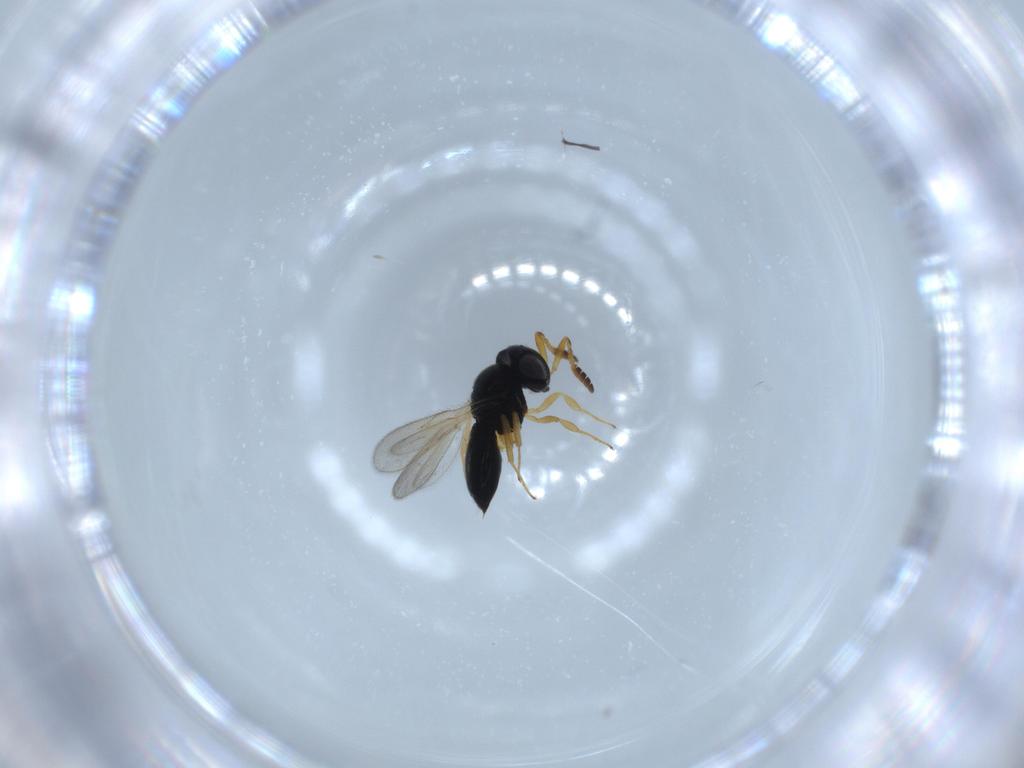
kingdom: Animalia
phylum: Arthropoda
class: Insecta
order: Hymenoptera
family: Scelionidae
